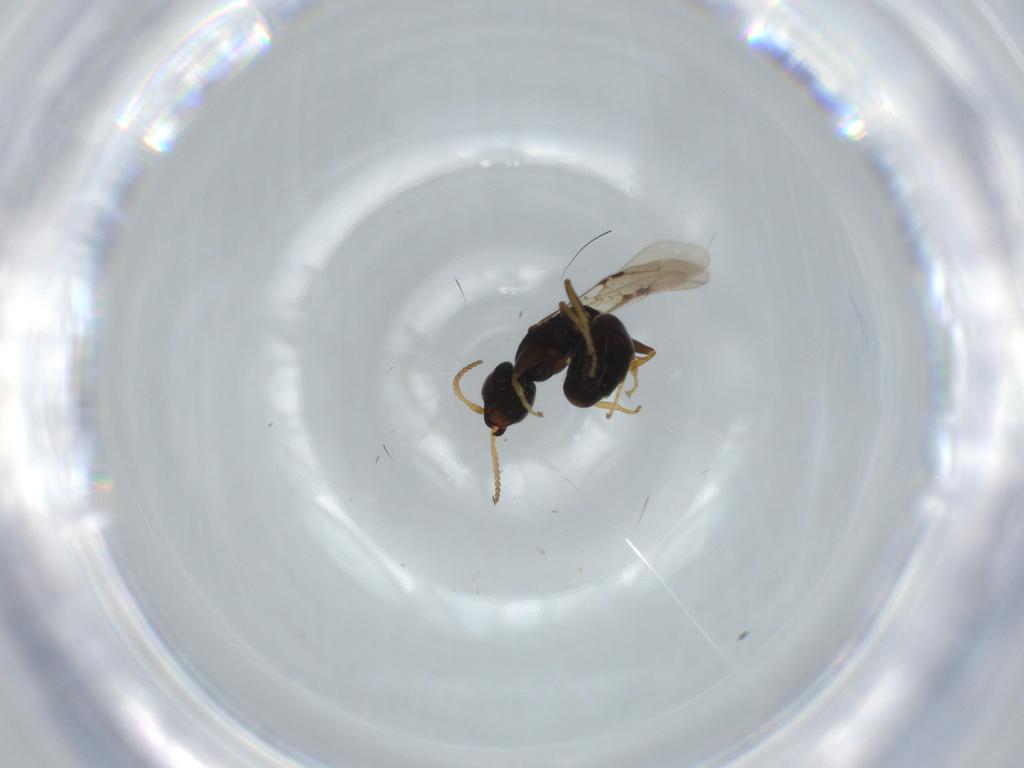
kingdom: Animalia
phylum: Arthropoda
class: Insecta
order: Hymenoptera
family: Bethylidae
